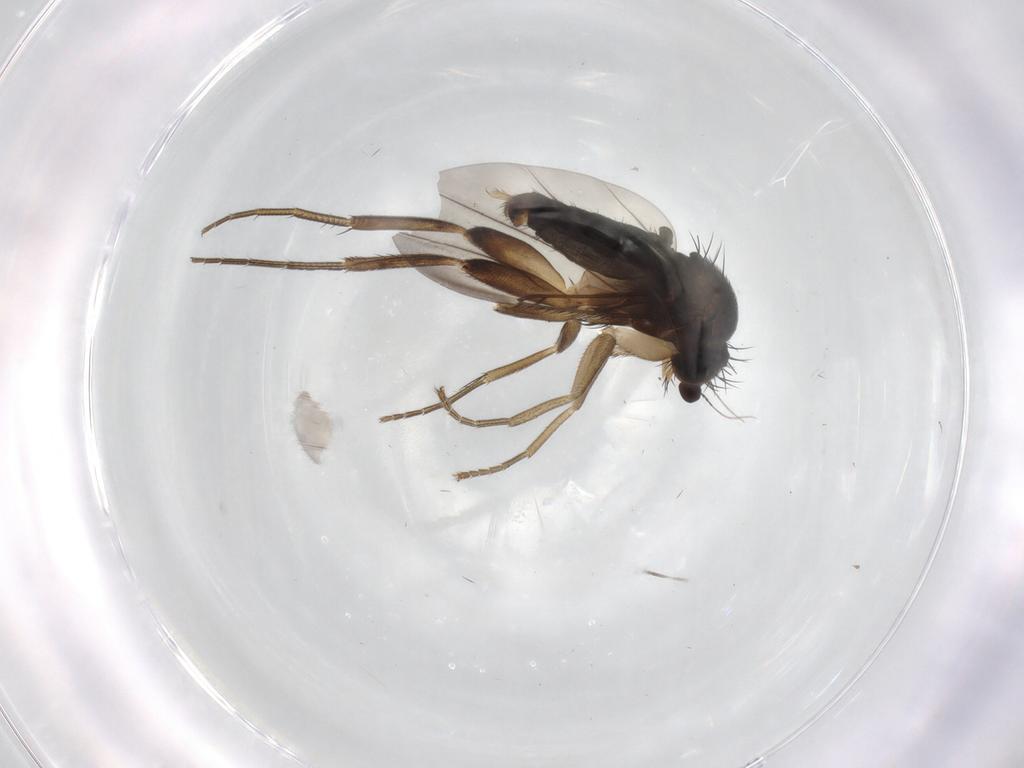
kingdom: Animalia
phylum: Arthropoda
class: Insecta
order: Diptera
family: Phoridae
